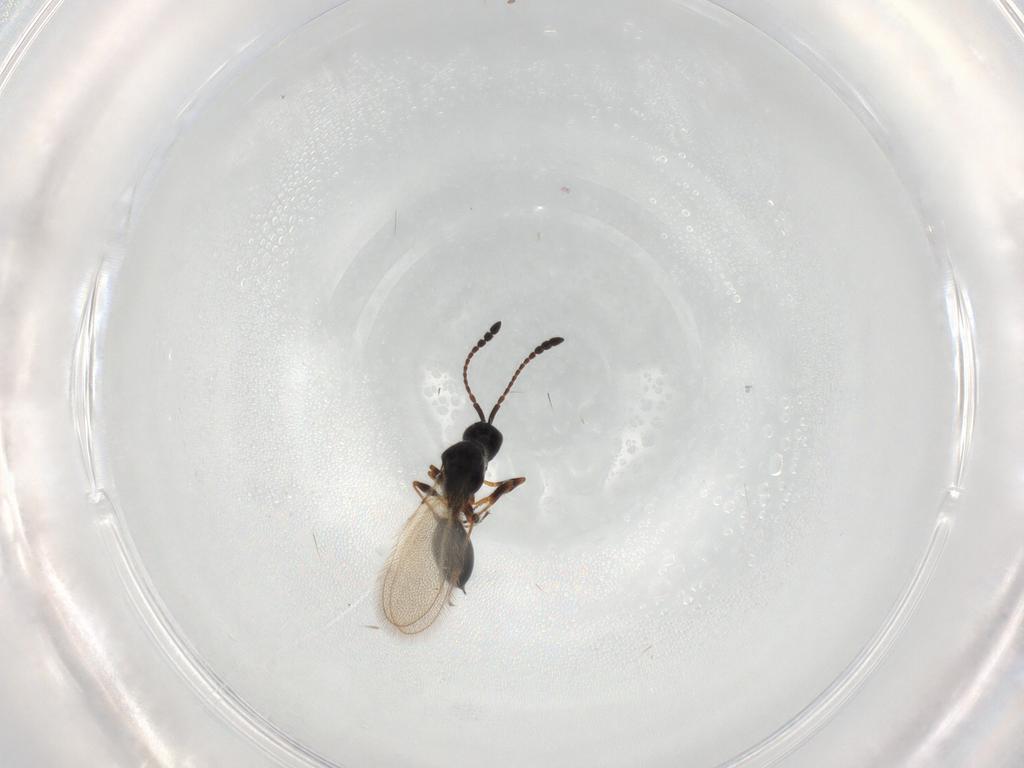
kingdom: Animalia
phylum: Arthropoda
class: Insecta
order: Hymenoptera
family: Diapriidae
